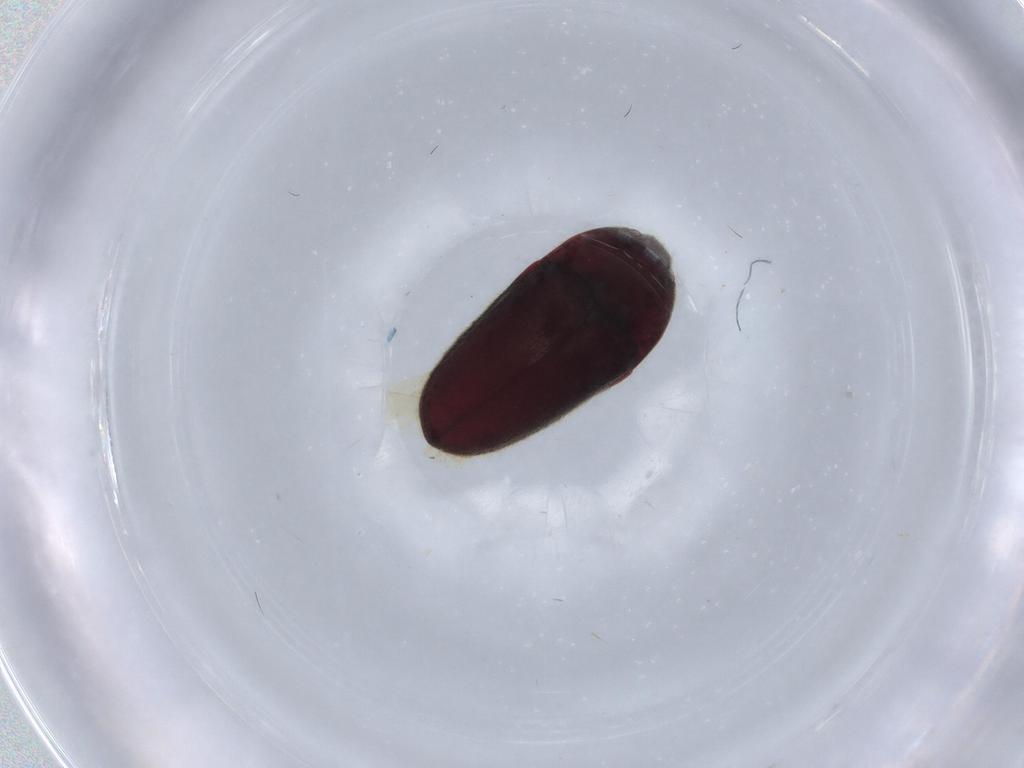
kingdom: Animalia
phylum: Arthropoda
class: Insecta
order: Coleoptera
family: Throscidae
